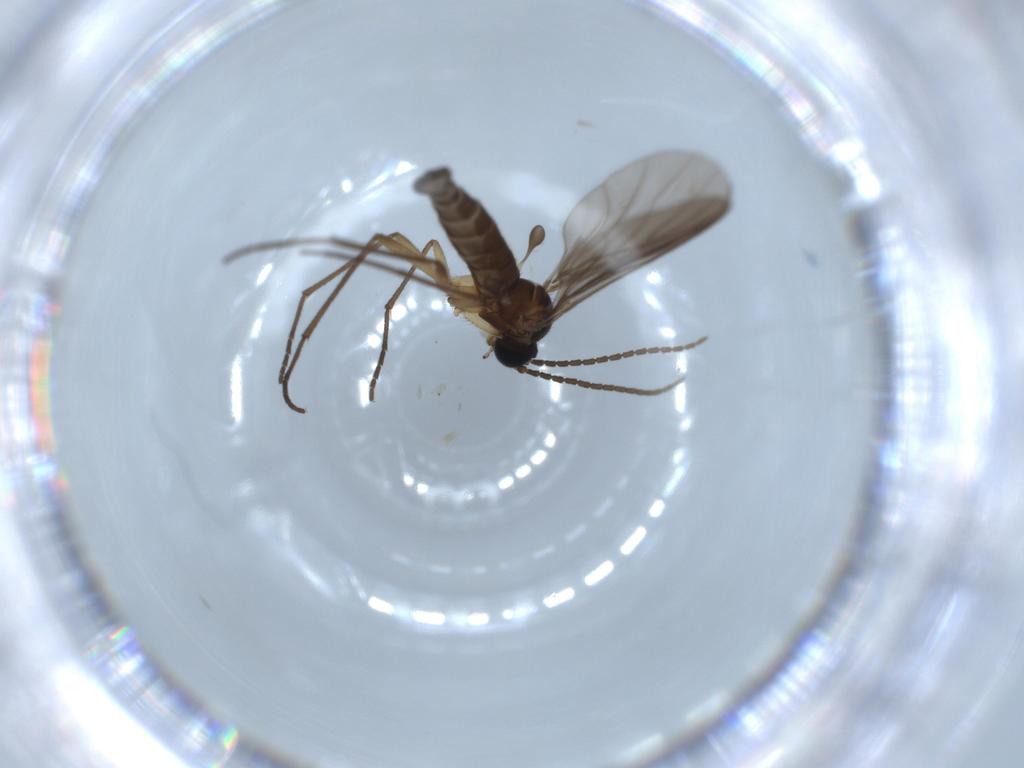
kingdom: Animalia
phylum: Arthropoda
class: Insecta
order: Diptera
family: Sciaridae
